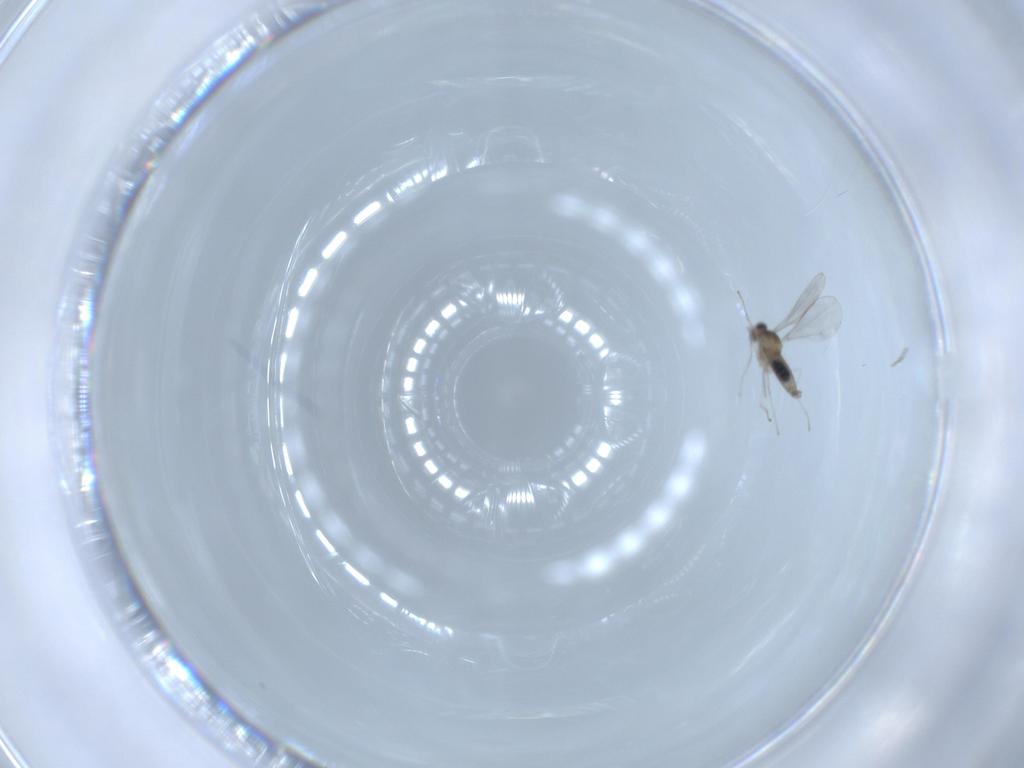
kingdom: Animalia
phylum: Arthropoda
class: Insecta
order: Diptera
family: Cecidomyiidae
